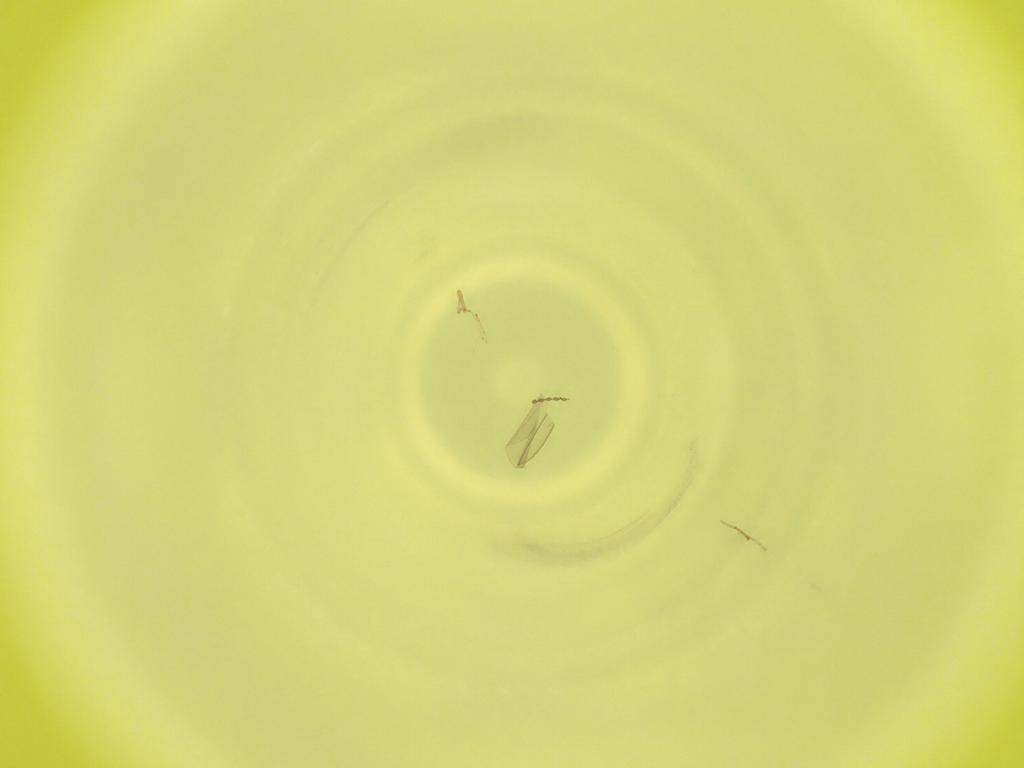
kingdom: Animalia
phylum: Arthropoda
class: Insecta
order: Diptera
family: Cecidomyiidae
